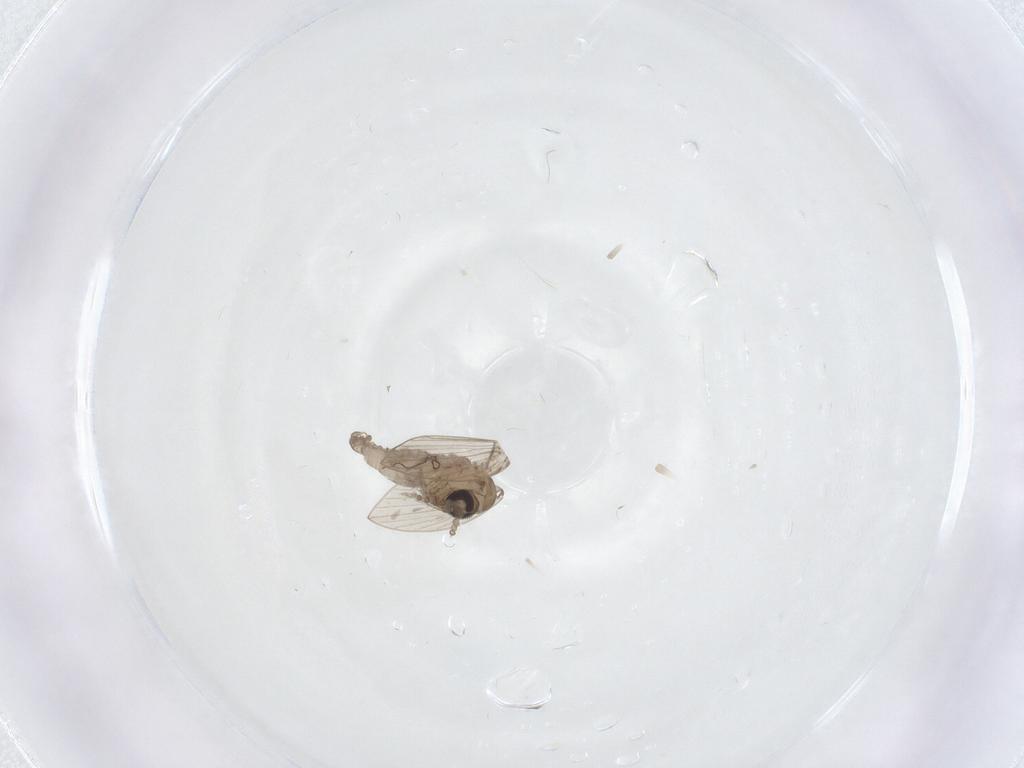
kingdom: Animalia
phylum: Arthropoda
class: Insecta
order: Diptera
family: Psychodidae
